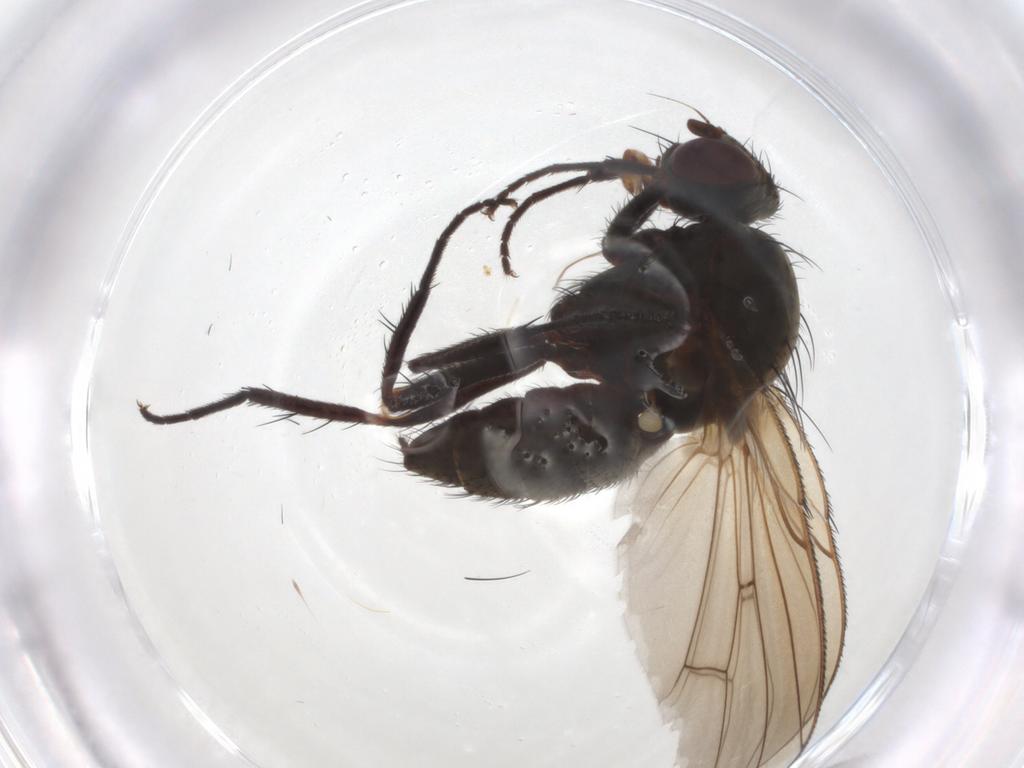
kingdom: Animalia
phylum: Arthropoda
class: Insecta
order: Diptera
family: Anthomyiidae
